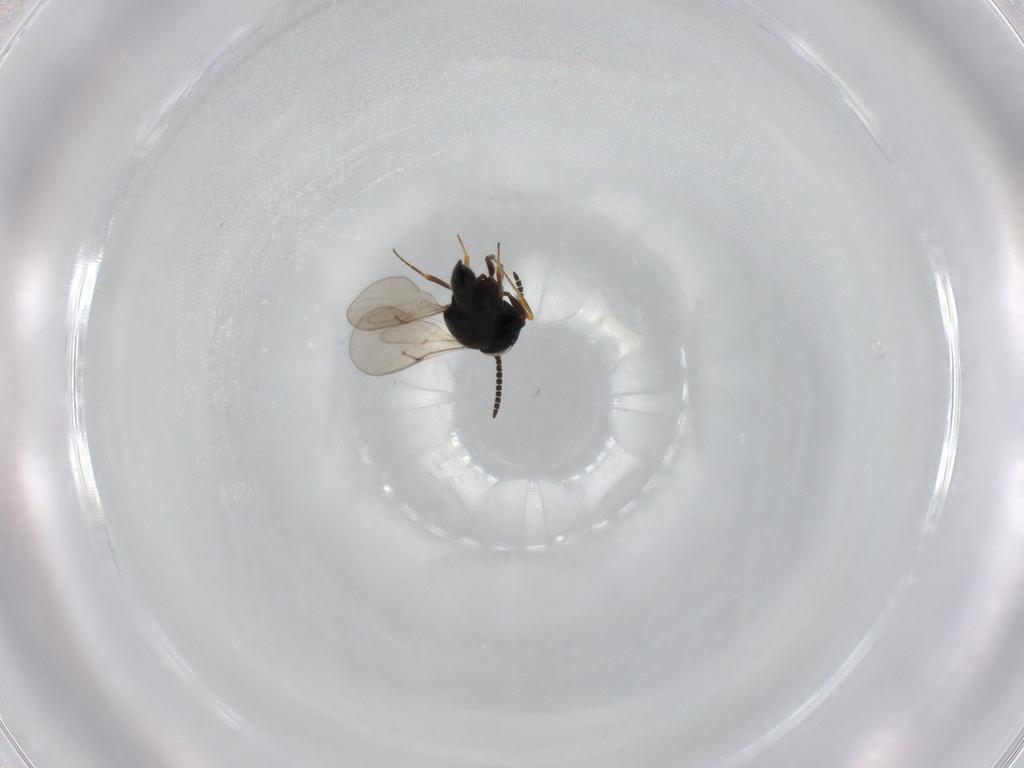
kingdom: Animalia
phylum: Arthropoda
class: Insecta
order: Hymenoptera
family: Scelionidae
